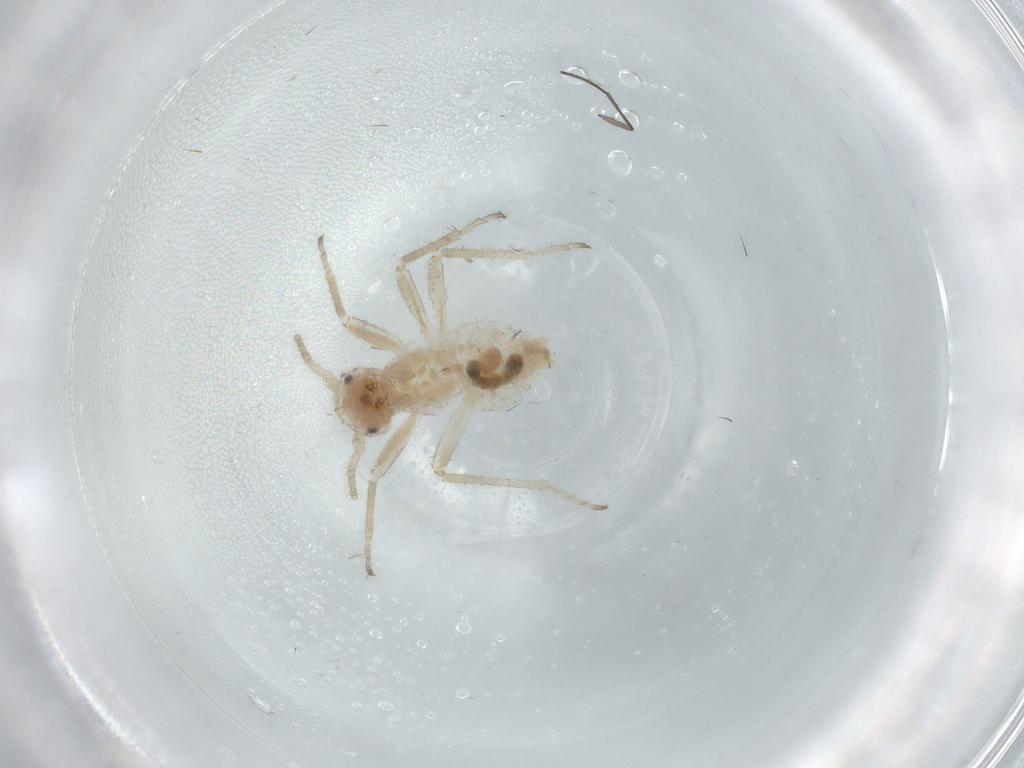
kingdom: Animalia
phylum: Arthropoda
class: Insecta
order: Psocodea
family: Psocidae
